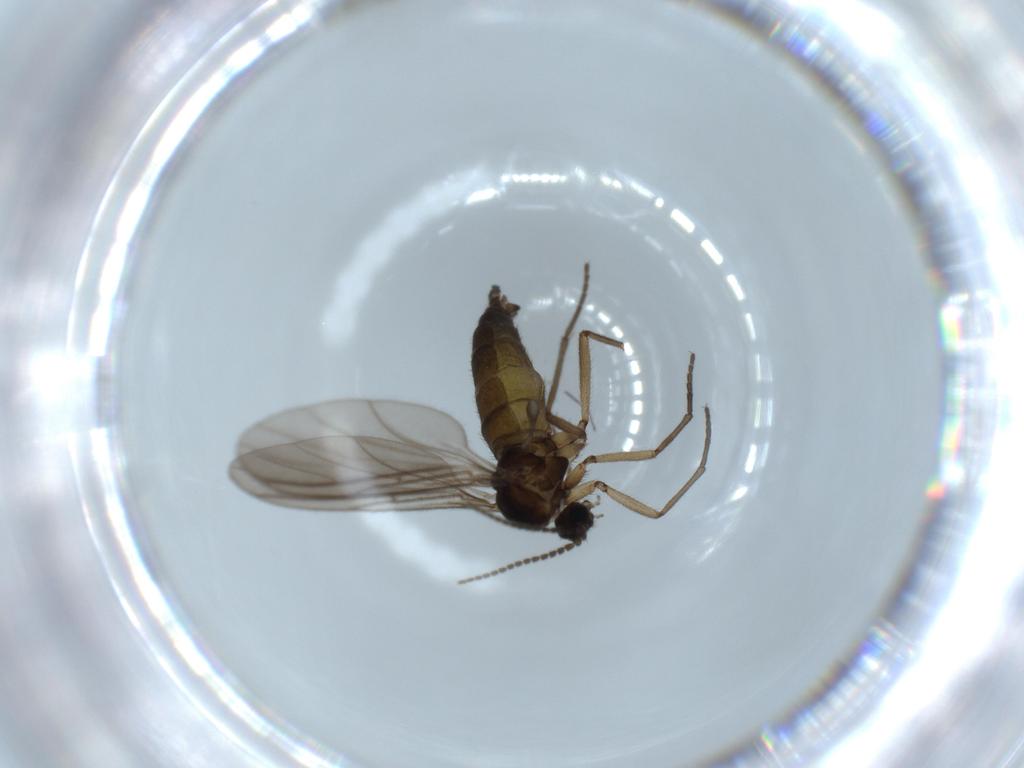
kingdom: Animalia
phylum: Arthropoda
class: Insecta
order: Diptera
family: Sciaridae
